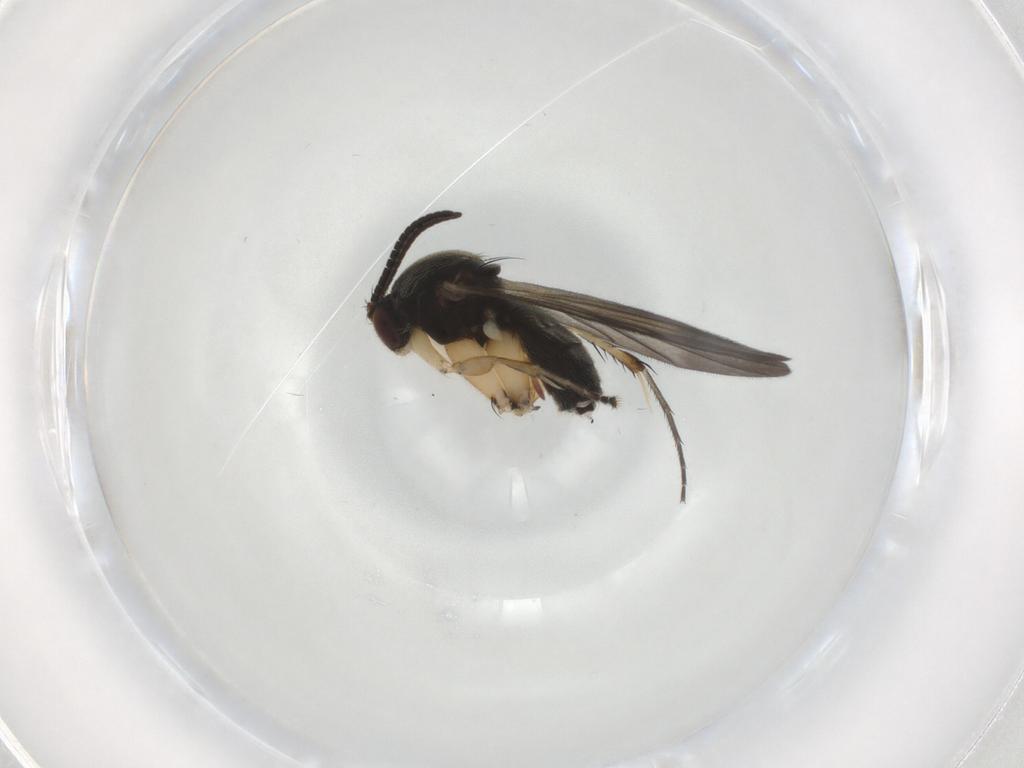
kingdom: Animalia
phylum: Arthropoda
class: Insecta
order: Diptera
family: Mycetophilidae
